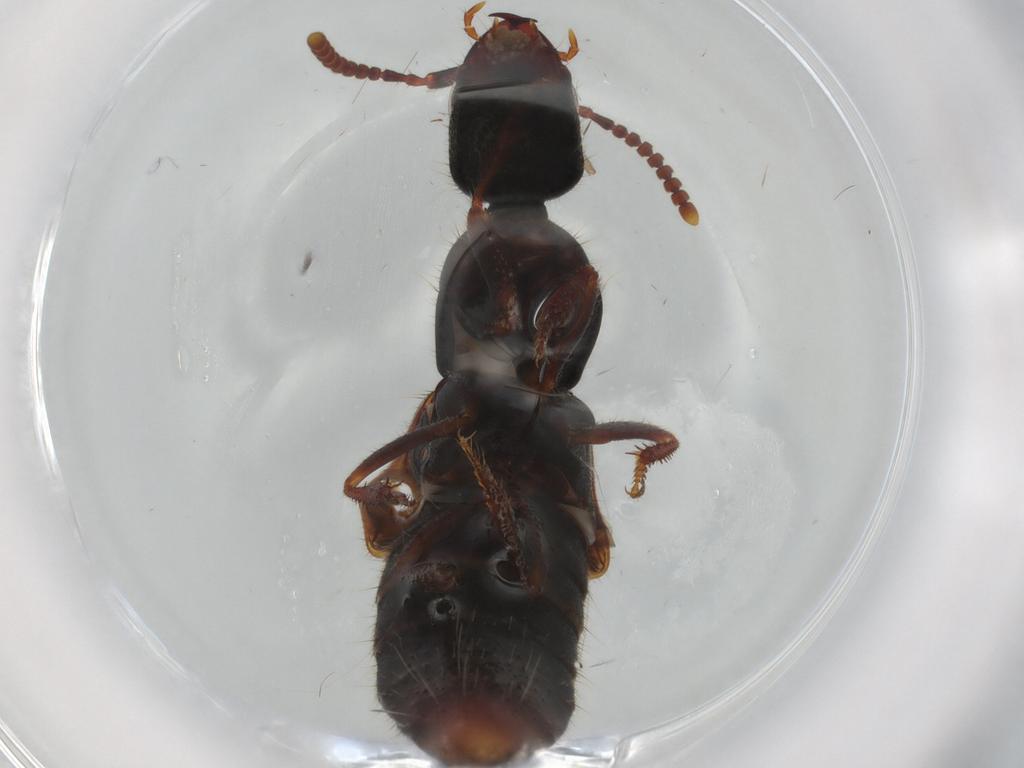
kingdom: Animalia
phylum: Arthropoda
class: Insecta
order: Coleoptera
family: Staphylinidae
